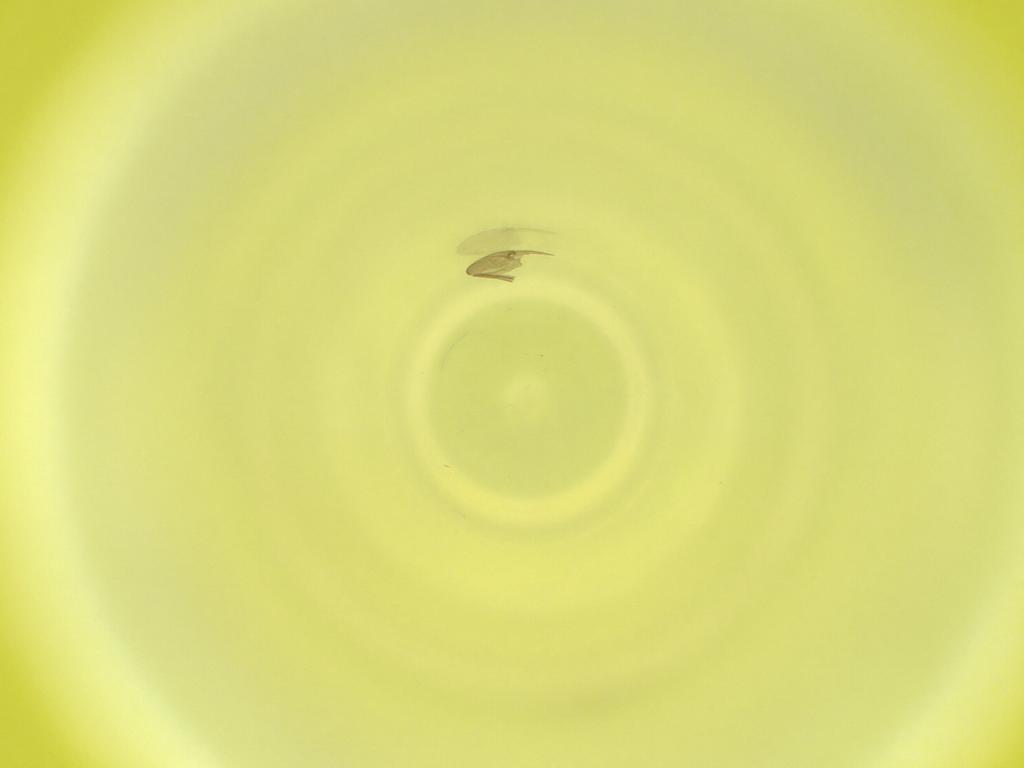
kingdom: Animalia
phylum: Arthropoda
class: Insecta
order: Diptera
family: Cecidomyiidae
